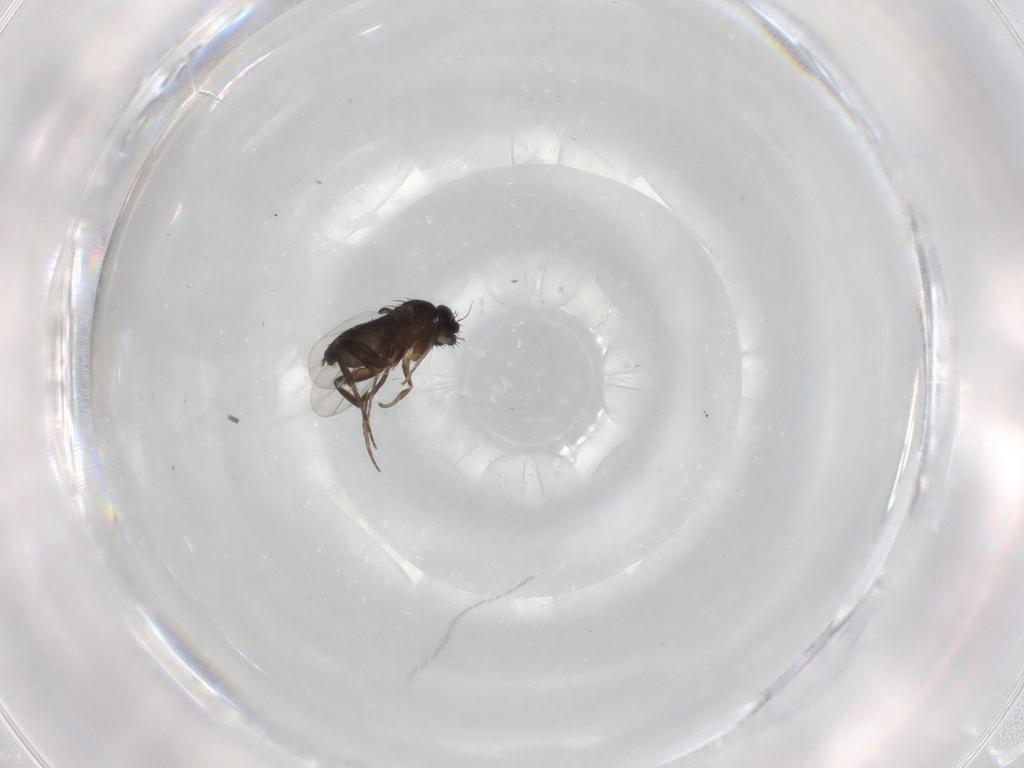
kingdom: Animalia
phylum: Arthropoda
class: Insecta
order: Diptera
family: Phoridae
